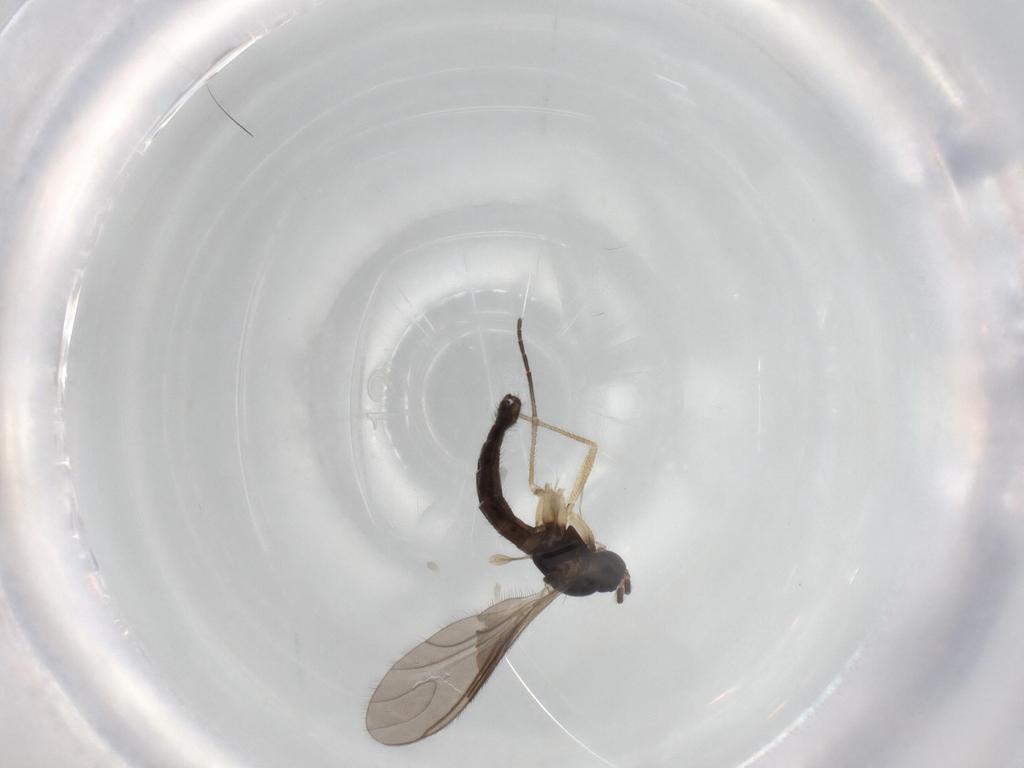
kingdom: Animalia
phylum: Arthropoda
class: Insecta
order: Diptera
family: Sciaridae
